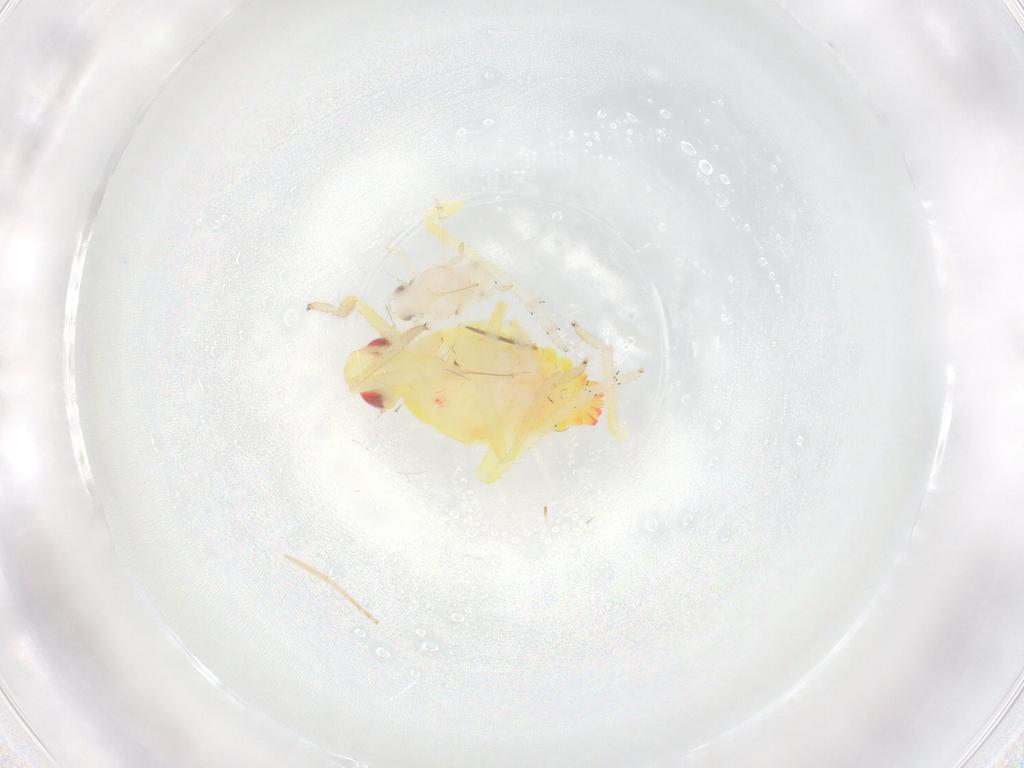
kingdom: Animalia
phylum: Arthropoda
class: Insecta
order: Hemiptera
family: Tropiduchidae
